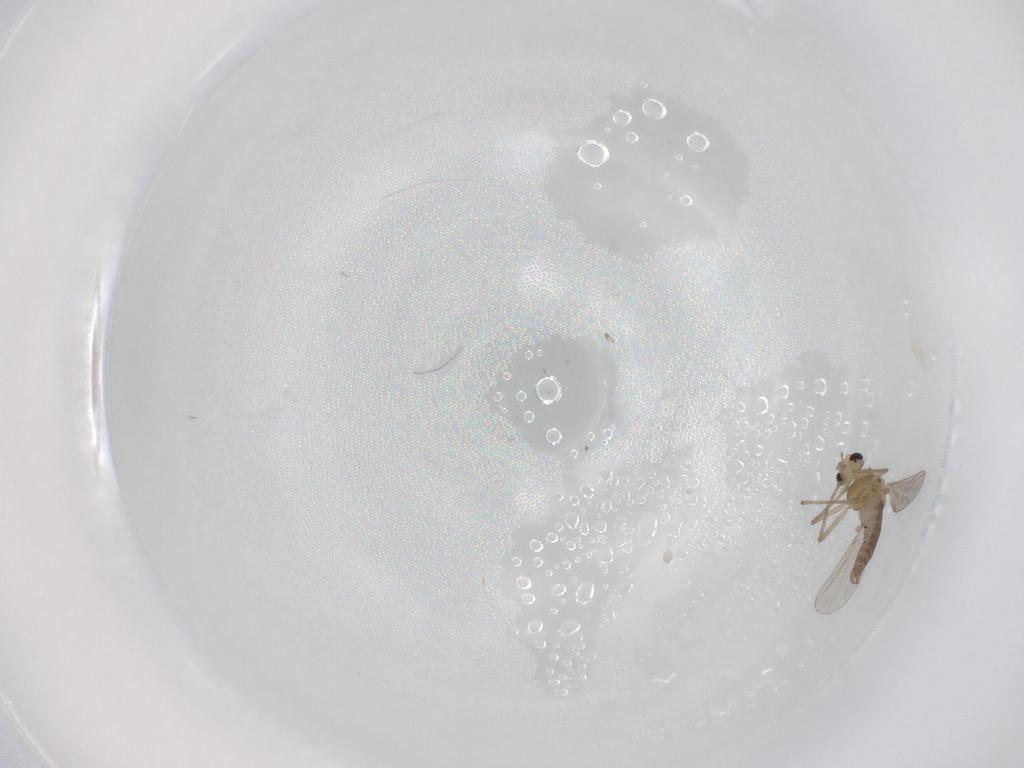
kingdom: Animalia
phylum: Arthropoda
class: Insecta
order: Diptera
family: Chironomidae
